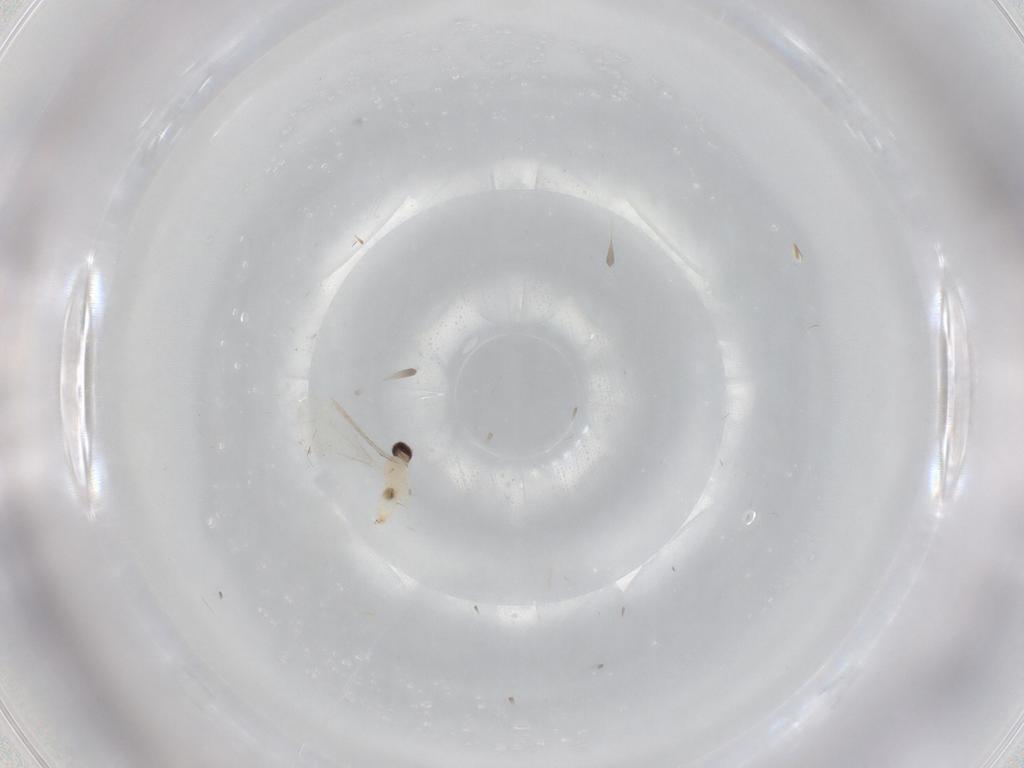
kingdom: Animalia
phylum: Arthropoda
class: Insecta
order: Diptera
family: Cecidomyiidae
